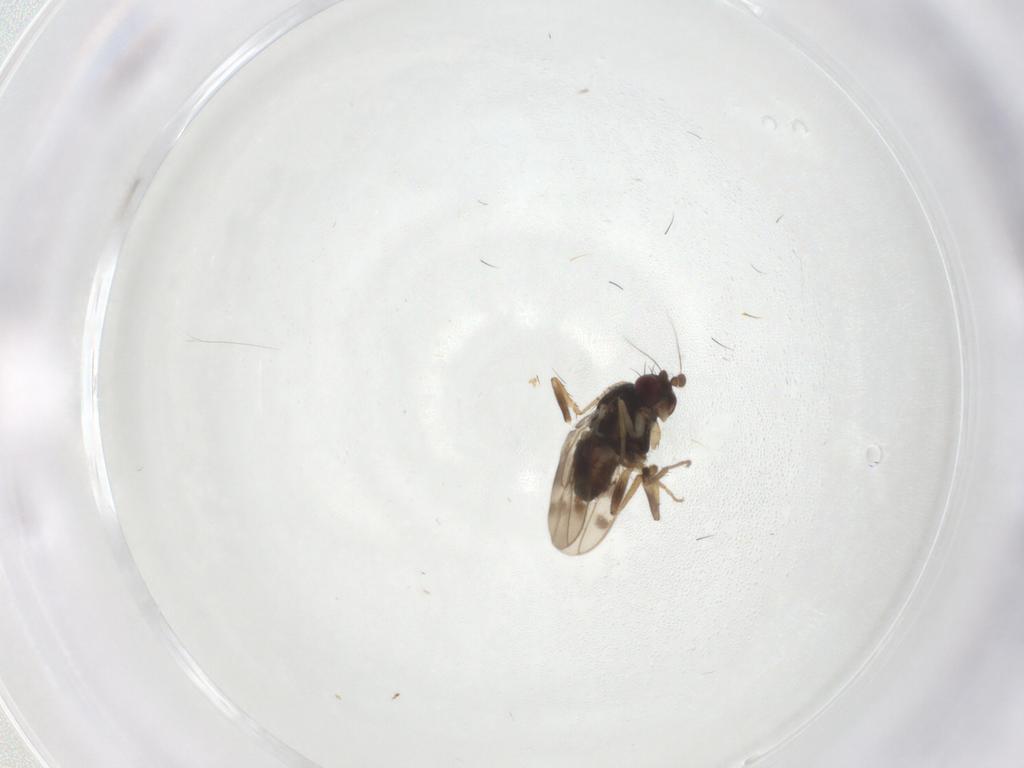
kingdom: Animalia
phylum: Arthropoda
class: Insecta
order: Diptera
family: Sphaeroceridae
